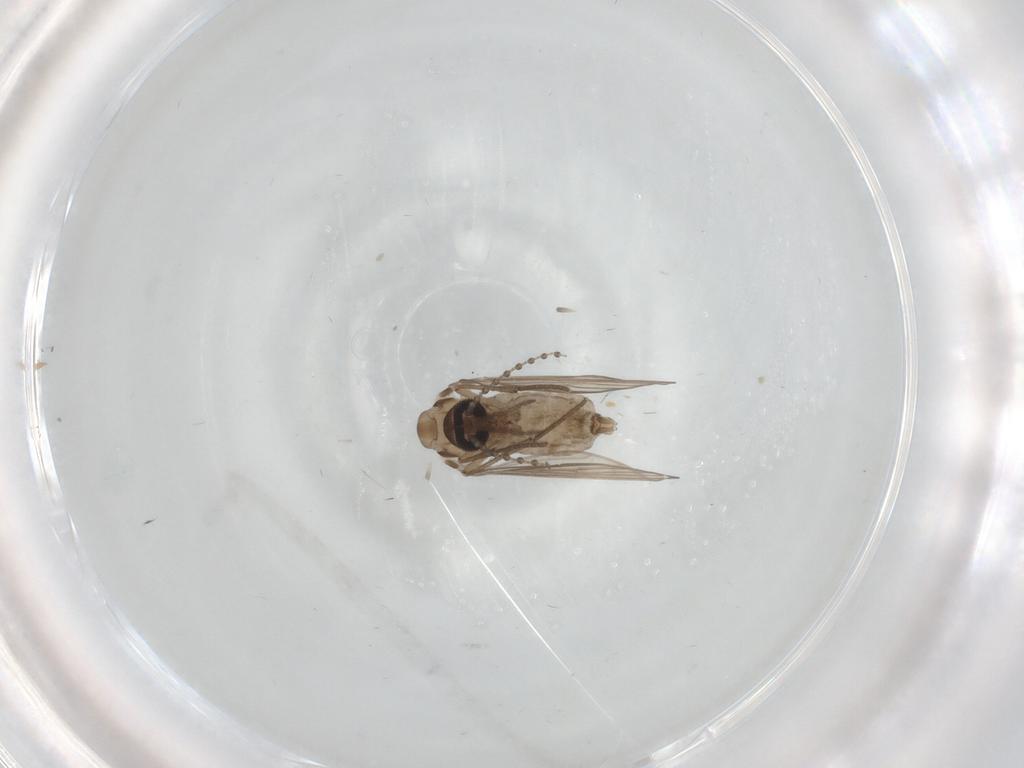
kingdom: Animalia
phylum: Arthropoda
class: Insecta
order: Diptera
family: Psychodidae
